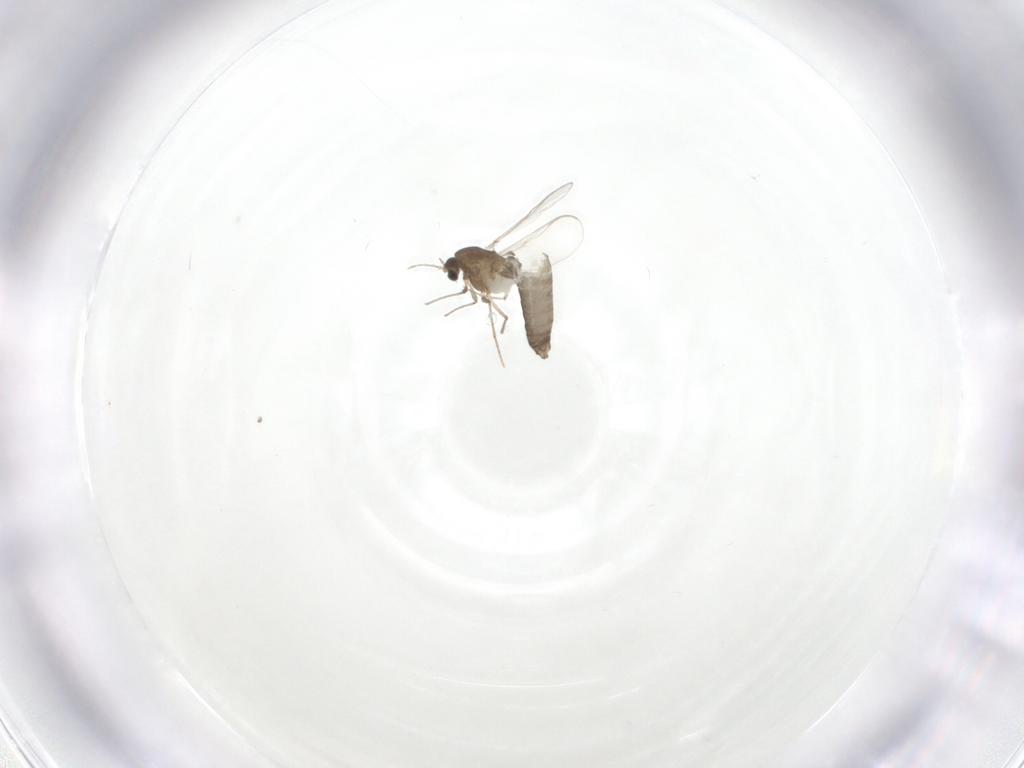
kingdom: Animalia
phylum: Arthropoda
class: Insecta
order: Diptera
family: Chironomidae
